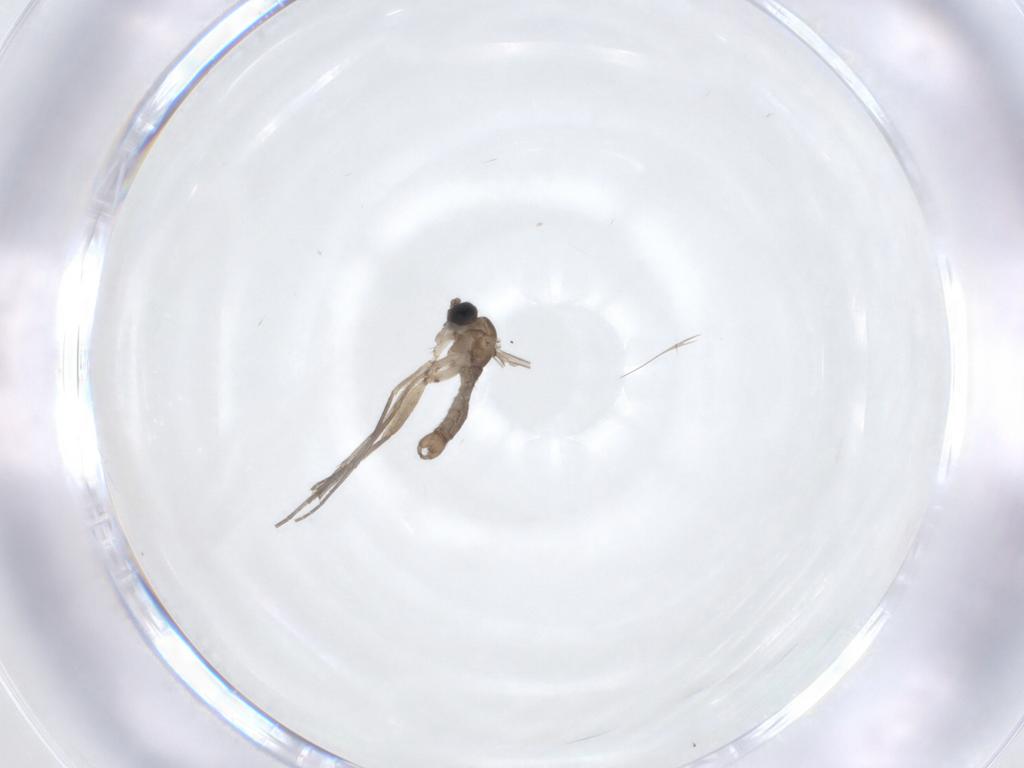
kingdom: Animalia
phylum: Arthropoda
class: Insecta
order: Diptera
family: Sciaridae
